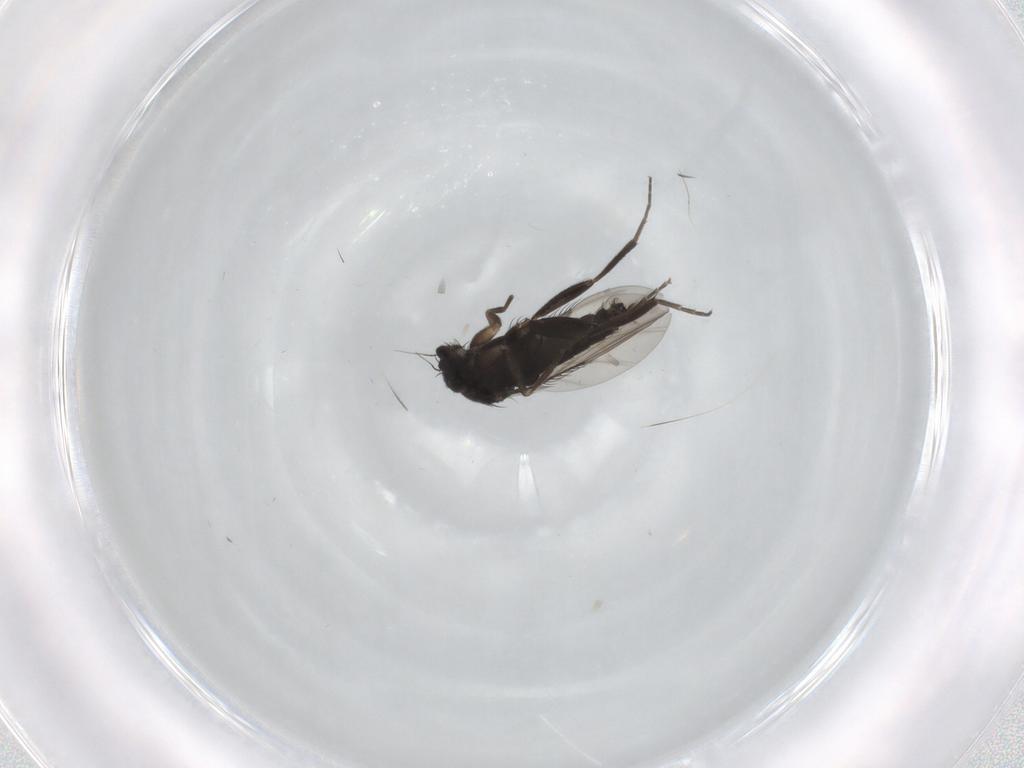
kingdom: Animalia
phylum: Arthropoda
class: Insecta
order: Diptera
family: Phoridae
